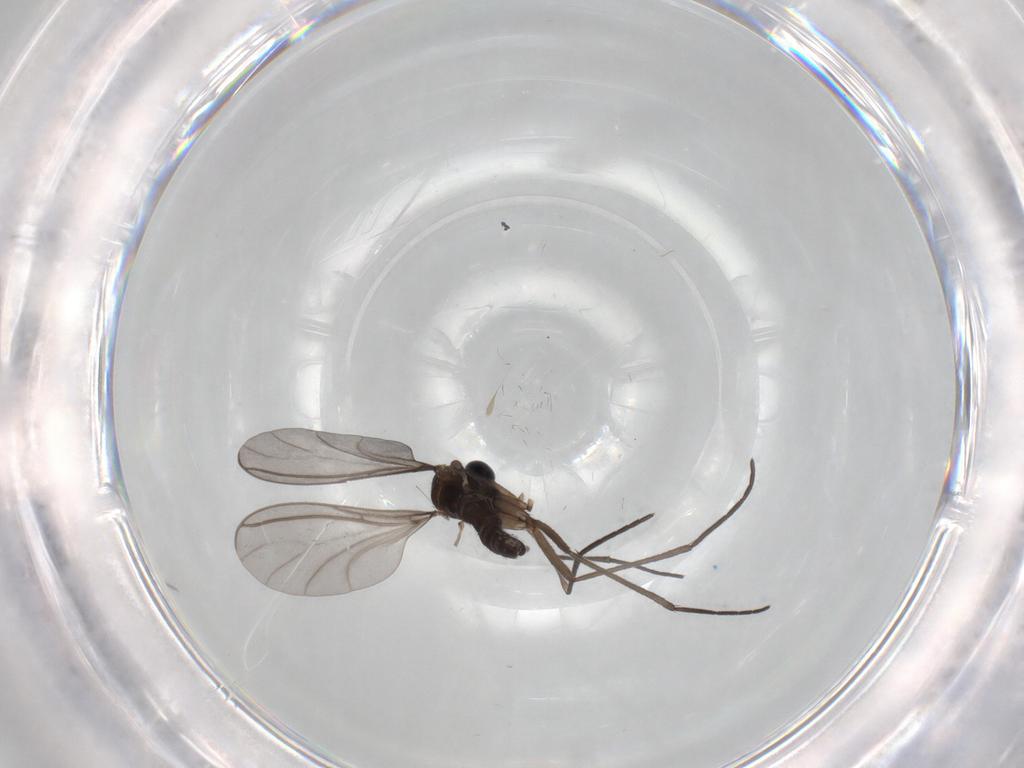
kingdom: Animalia
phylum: Arthropoda
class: Insecta
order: Diptera
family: Sciaridae
